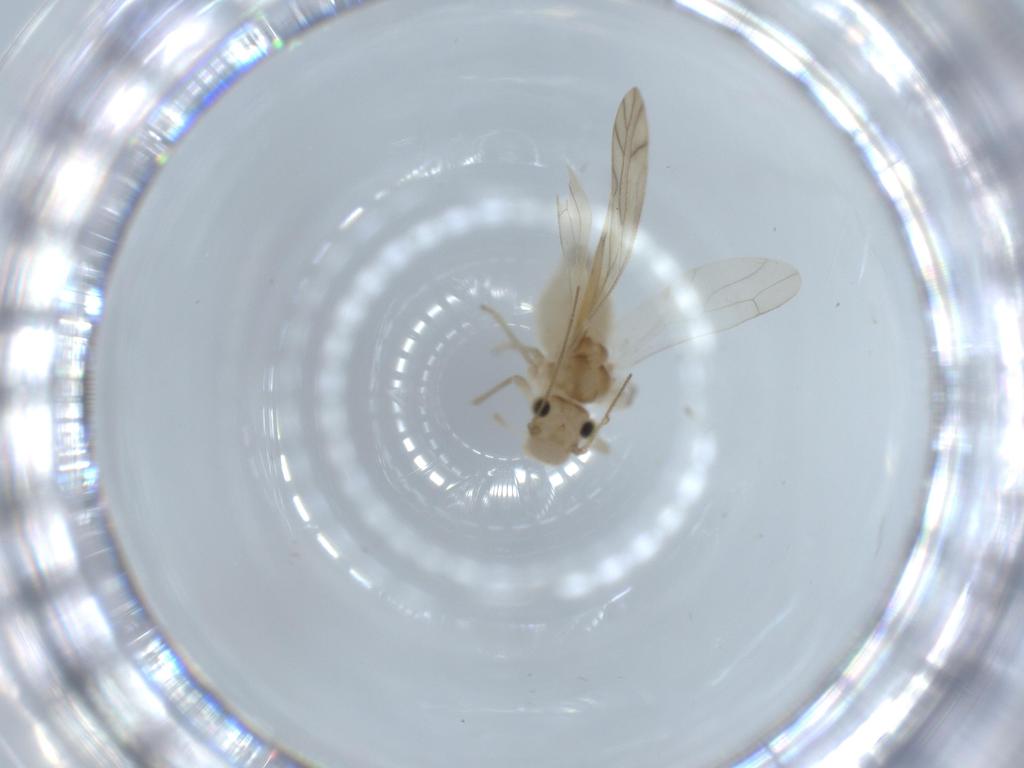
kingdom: Animalia
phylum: Arthropoda
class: Insecta
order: Psocodea
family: Caeciliusidae
